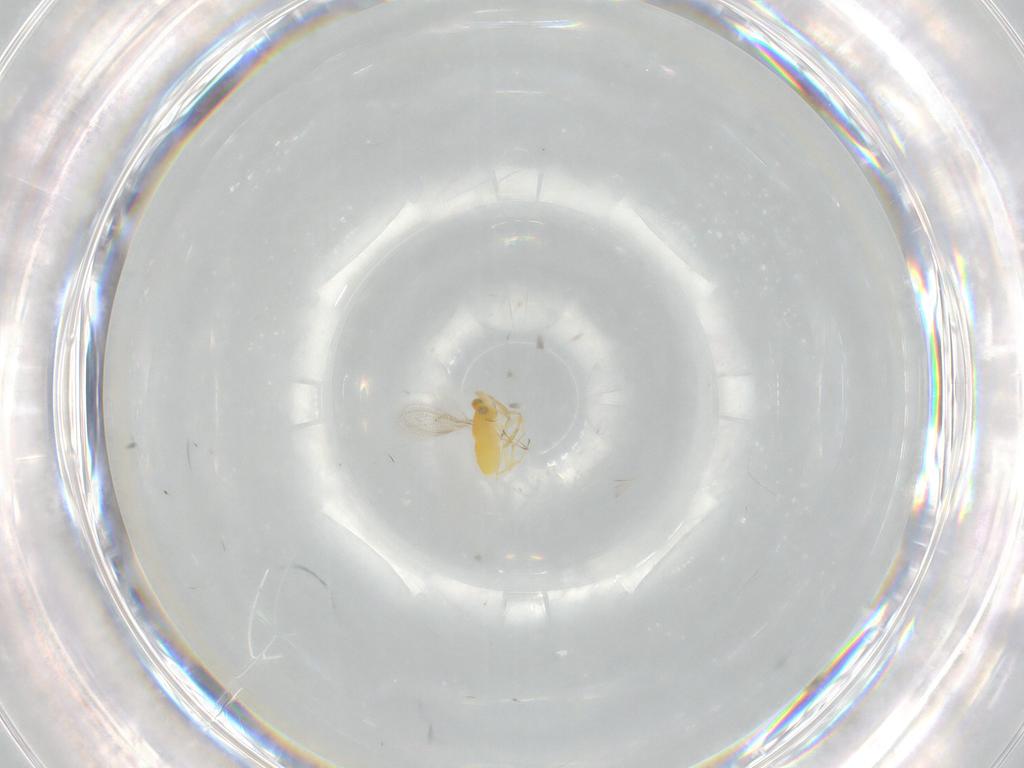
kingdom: Animalia
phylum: Arthropoda
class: Insecta
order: Hymenoptera
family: Aphelinidae
